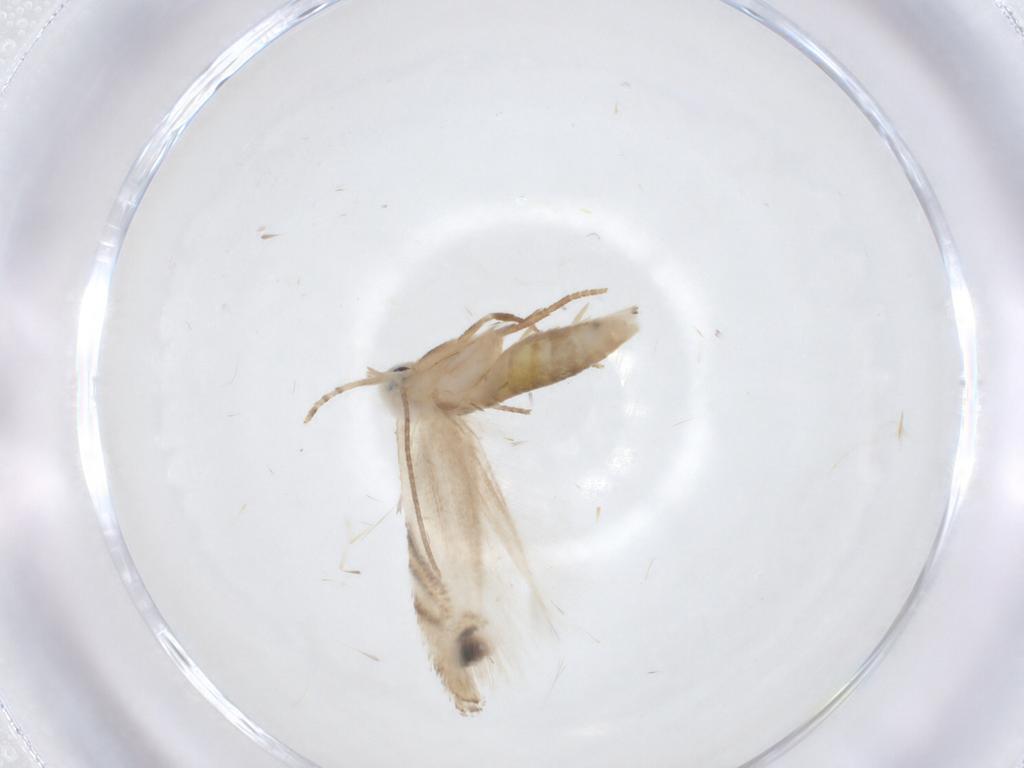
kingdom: Animalia
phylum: Arthropoda
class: Insecta
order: Lepidoptera
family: Lyonetiidae
